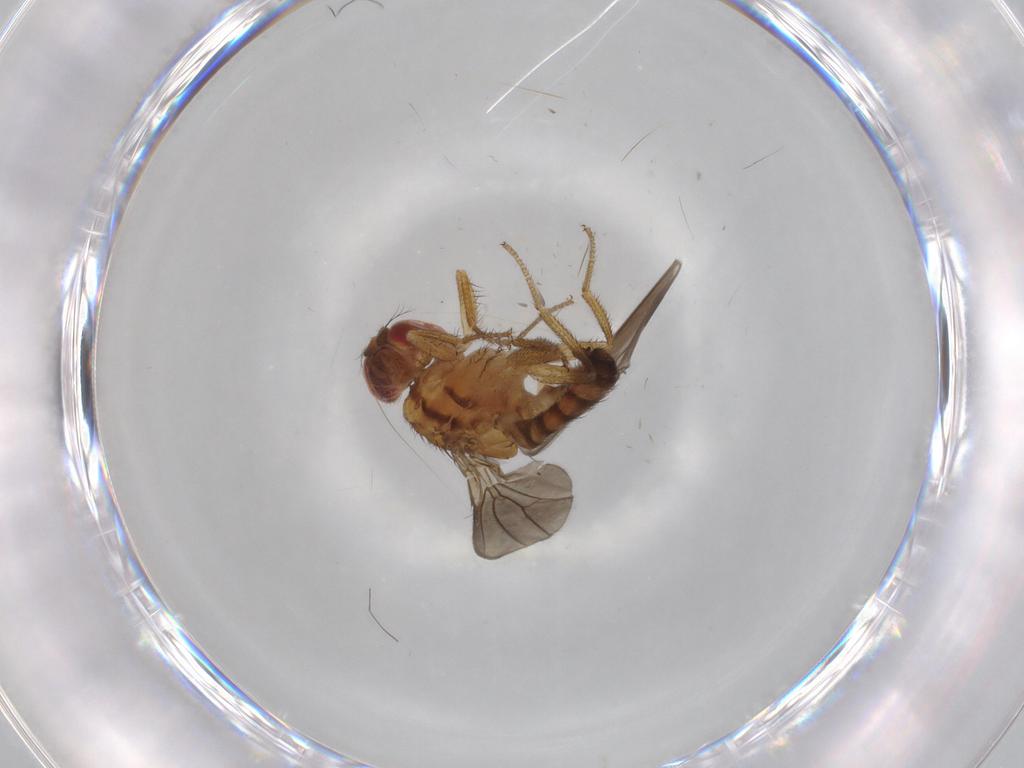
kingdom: Animalia
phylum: Arthropoda
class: Insecta
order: Diptera
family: Drosophilidae
